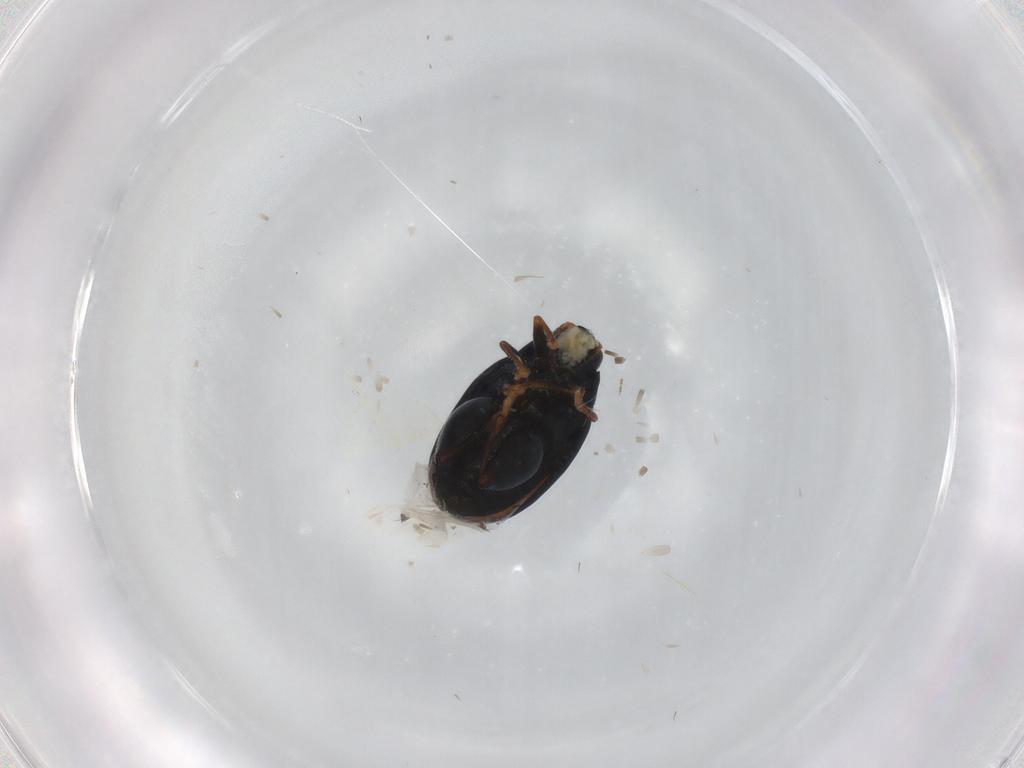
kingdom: Animalia
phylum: Arthropoda
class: Insecta
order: Coleoptera
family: Chrysomelidae
